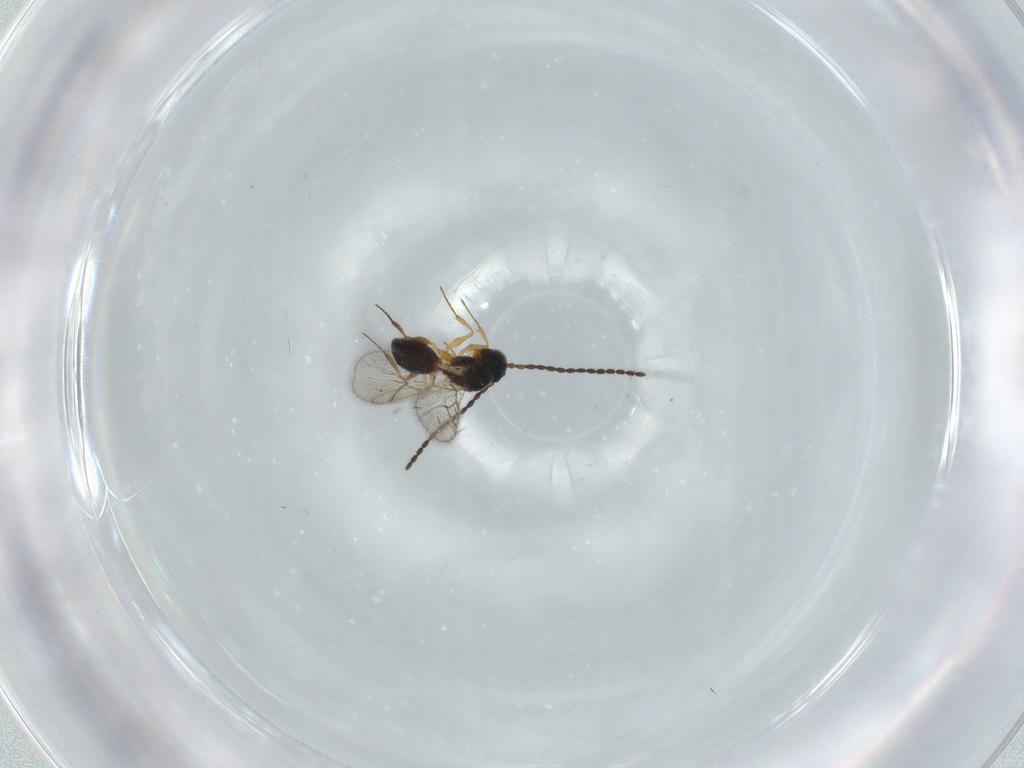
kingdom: Animalia
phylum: Arthropoda
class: Insecta
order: Hymenoptera
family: Figitidae
